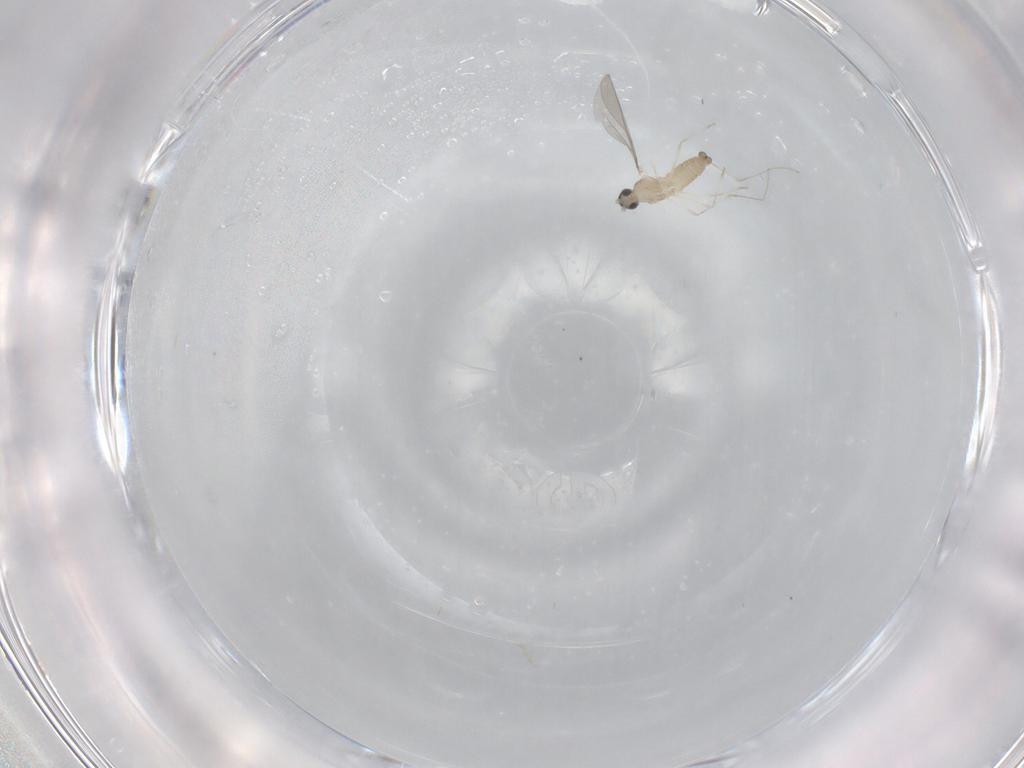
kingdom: Animalia
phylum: Arthropoda
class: Insecta
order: Diptera
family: Cecidomyiidae
